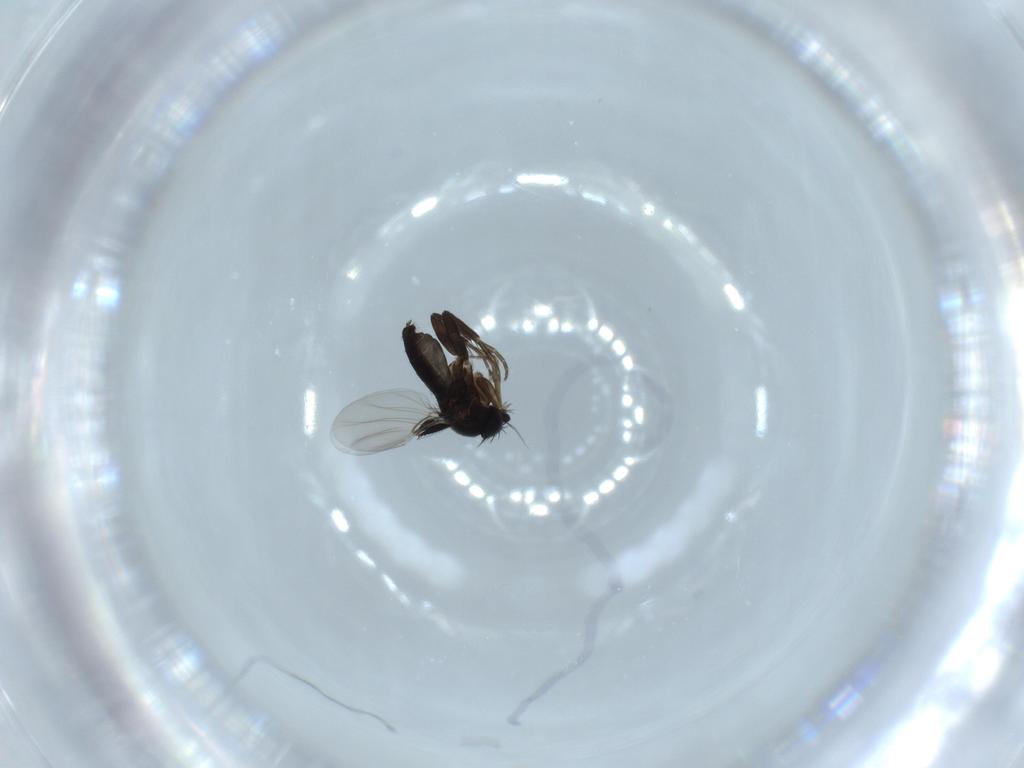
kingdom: Animalia
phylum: Arthropoda
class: Insecta
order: Diptera
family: Phoridae
